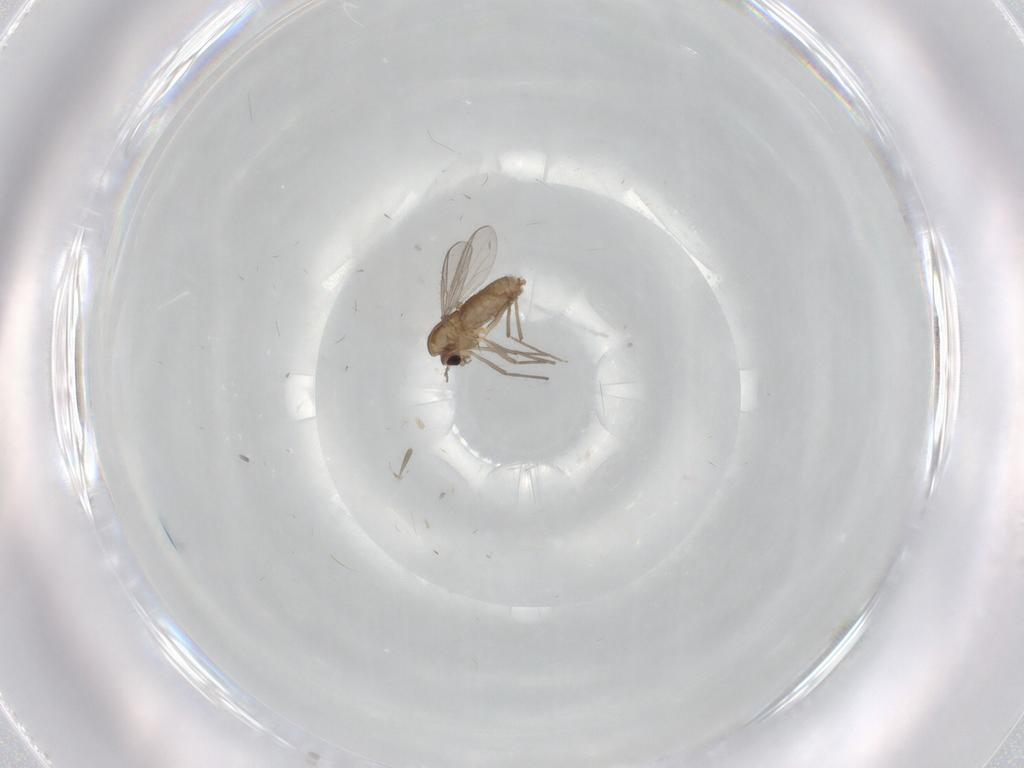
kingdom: Animalia
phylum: Arthropoda
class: Insecta
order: Diptera
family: Chironomidae
